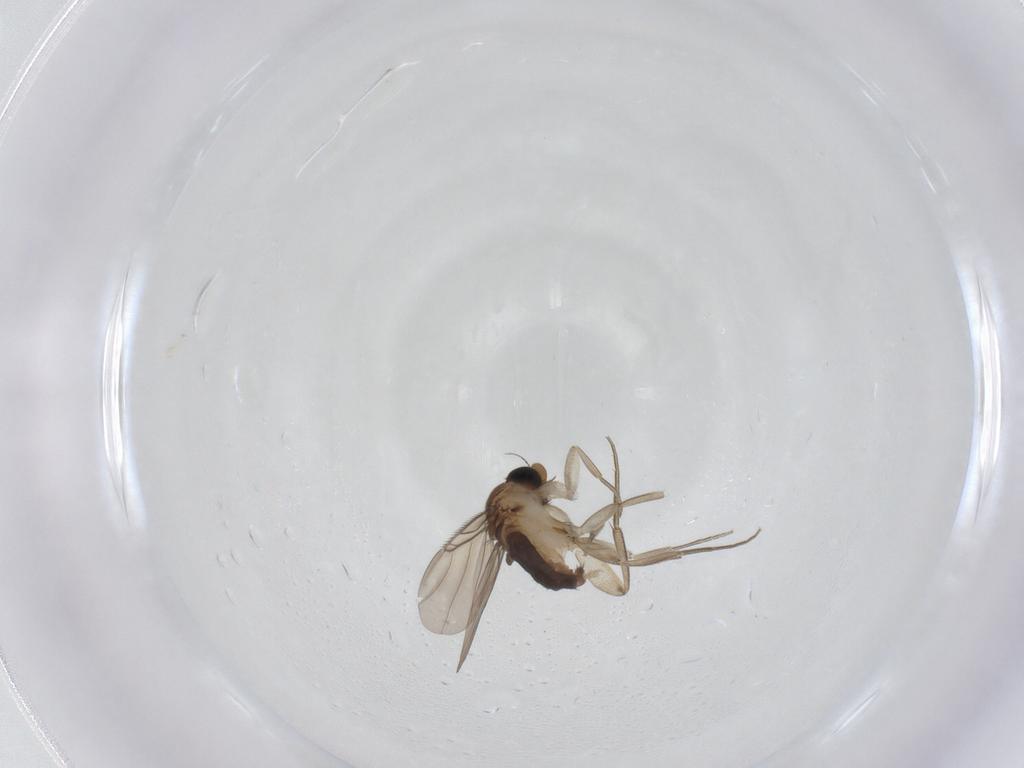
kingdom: Animalia
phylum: Arthropoda
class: Insecta
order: Diptera
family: Phoridae
